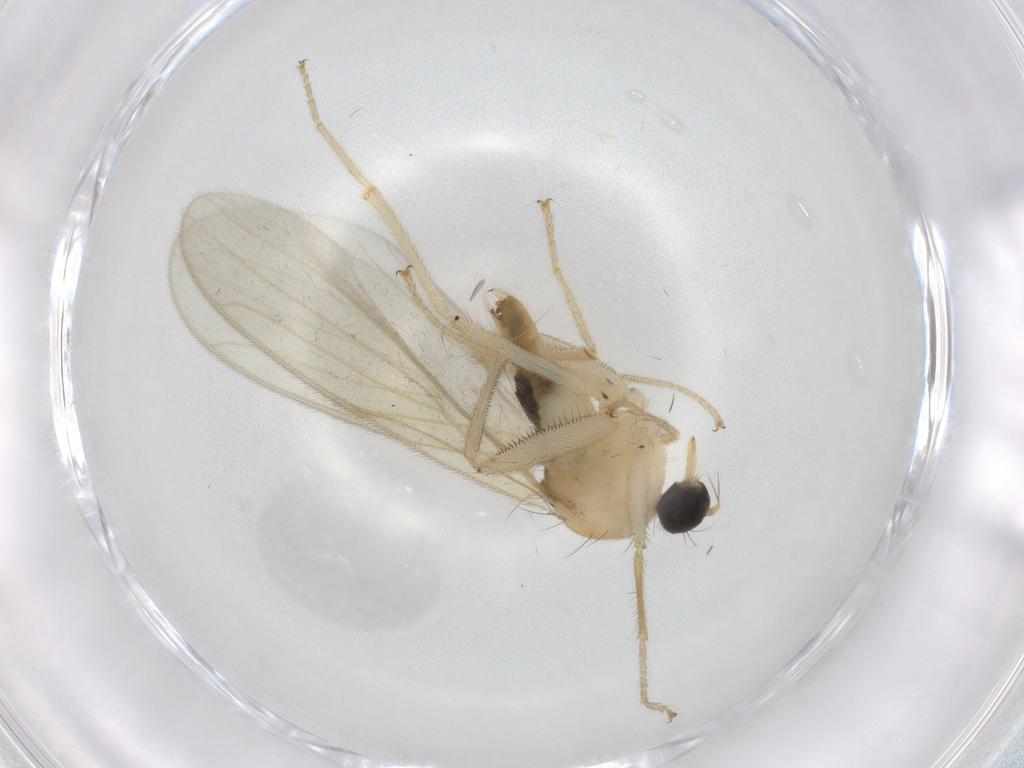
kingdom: Animalia
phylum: Arthropoda
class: Insecta
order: Diptera
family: Hybotidae
